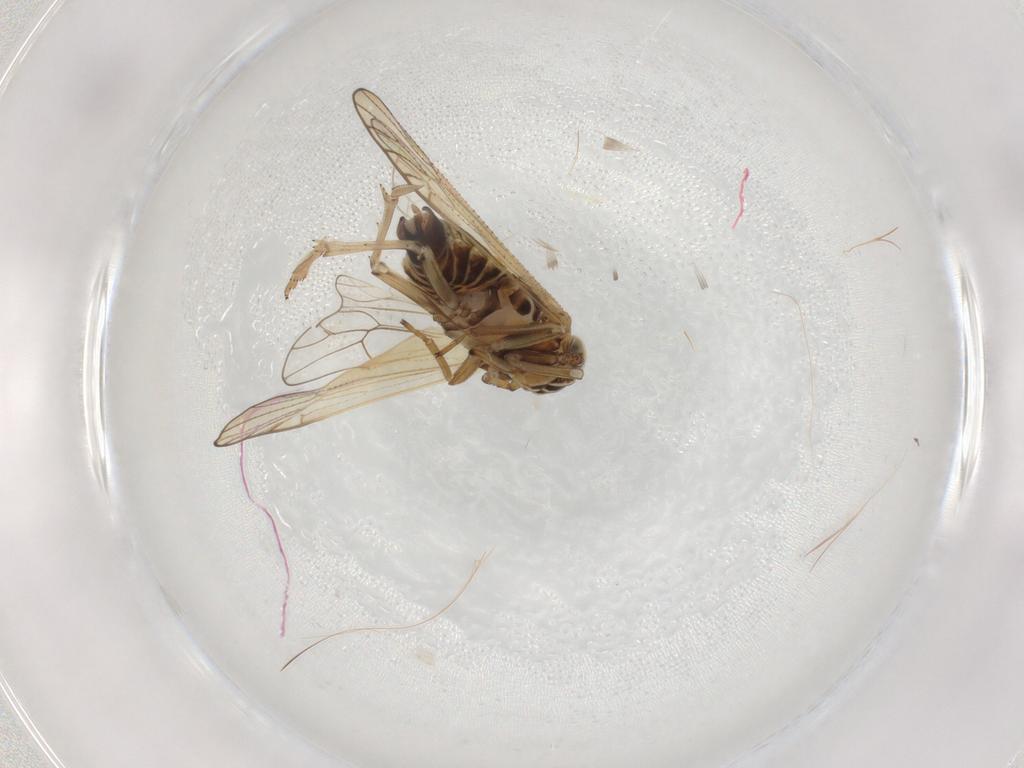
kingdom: Animalia
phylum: Arthropoda
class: Insecta
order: Hemiptera
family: Delphacidae
